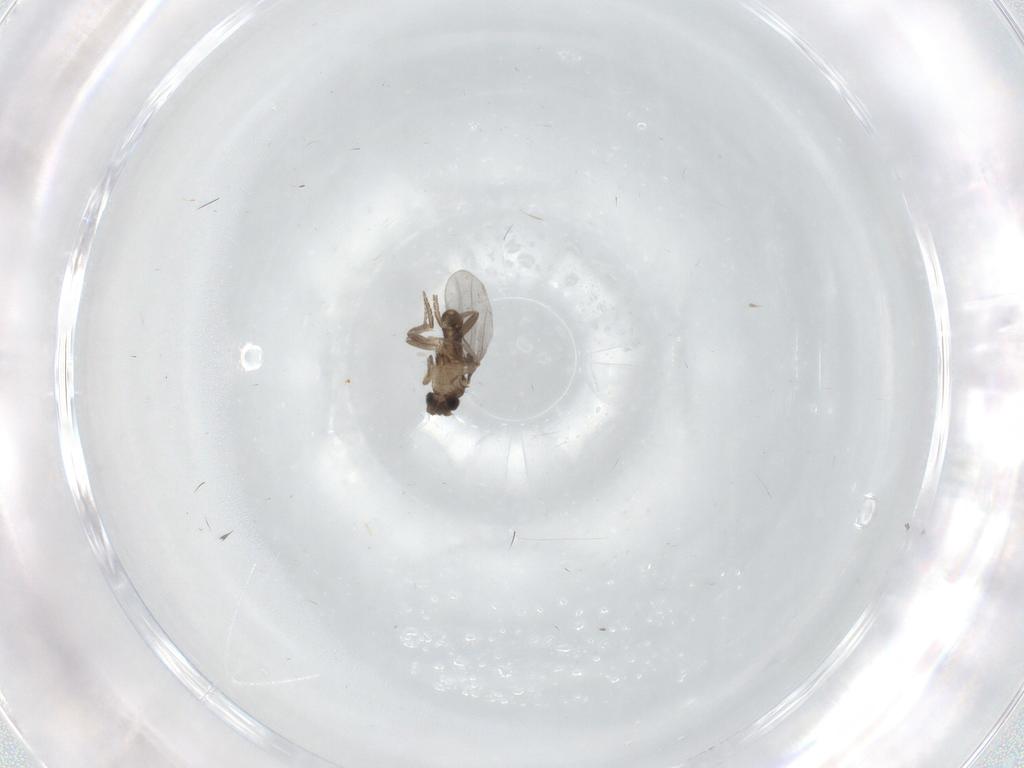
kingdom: Animalia
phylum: Arthropoda
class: Insecta
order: Diptera
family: Dolichopodidae
